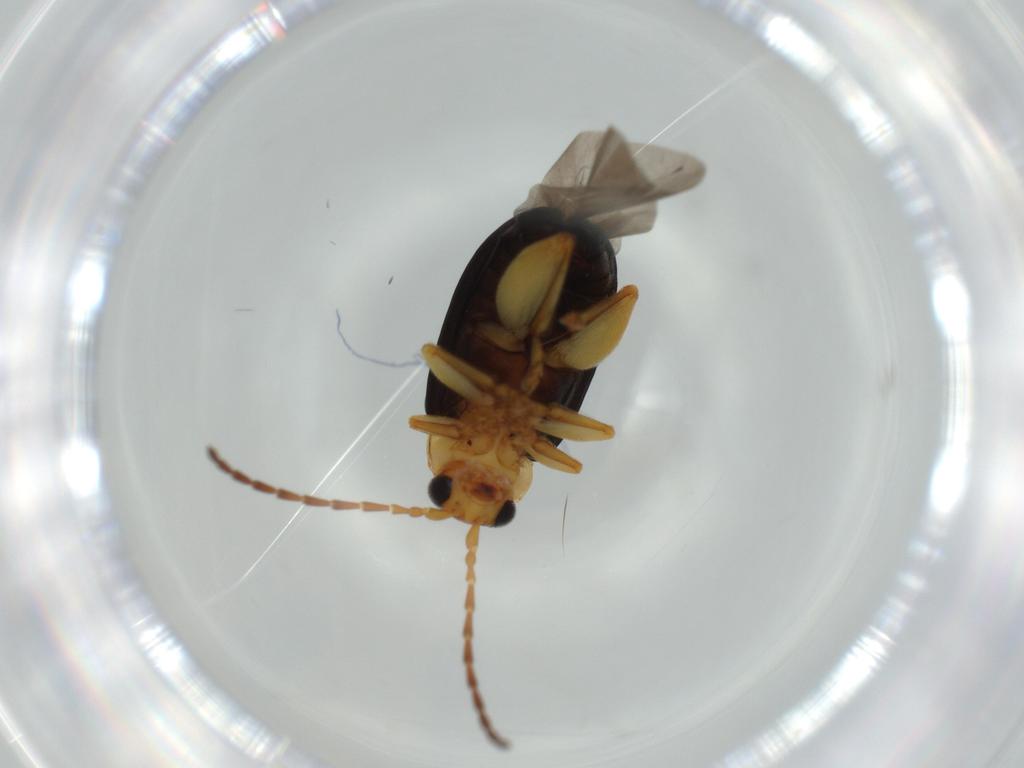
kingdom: Animalia
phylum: Arthropoda
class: Insecta
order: Coleoptera
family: Chrysomelidae
